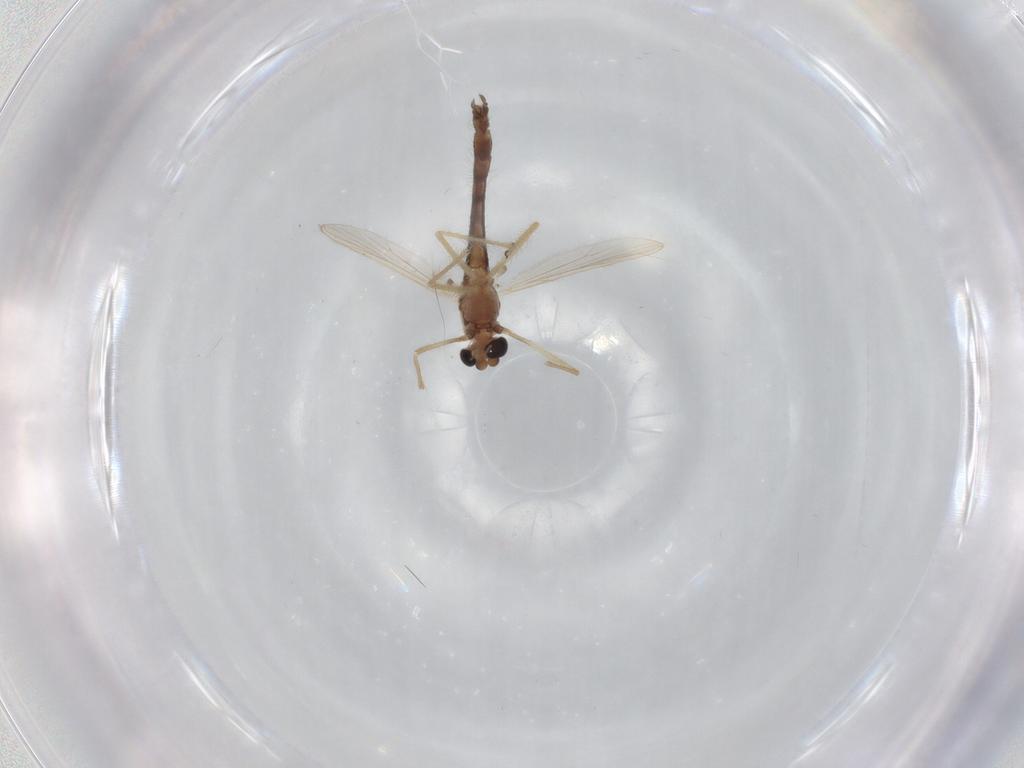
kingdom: Animalia
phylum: Arthropoda
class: Insecta
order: Diptera
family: Chironomidae
